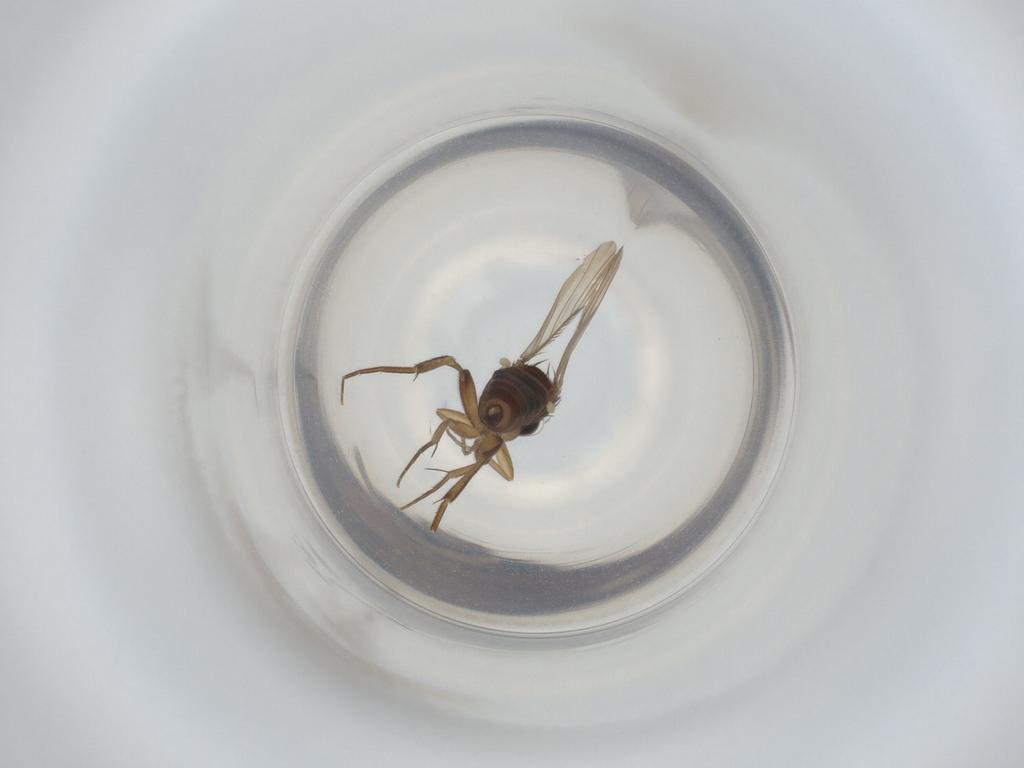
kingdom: Animalia
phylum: Arthropoda
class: Insecta
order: Diptera
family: Phoridae
